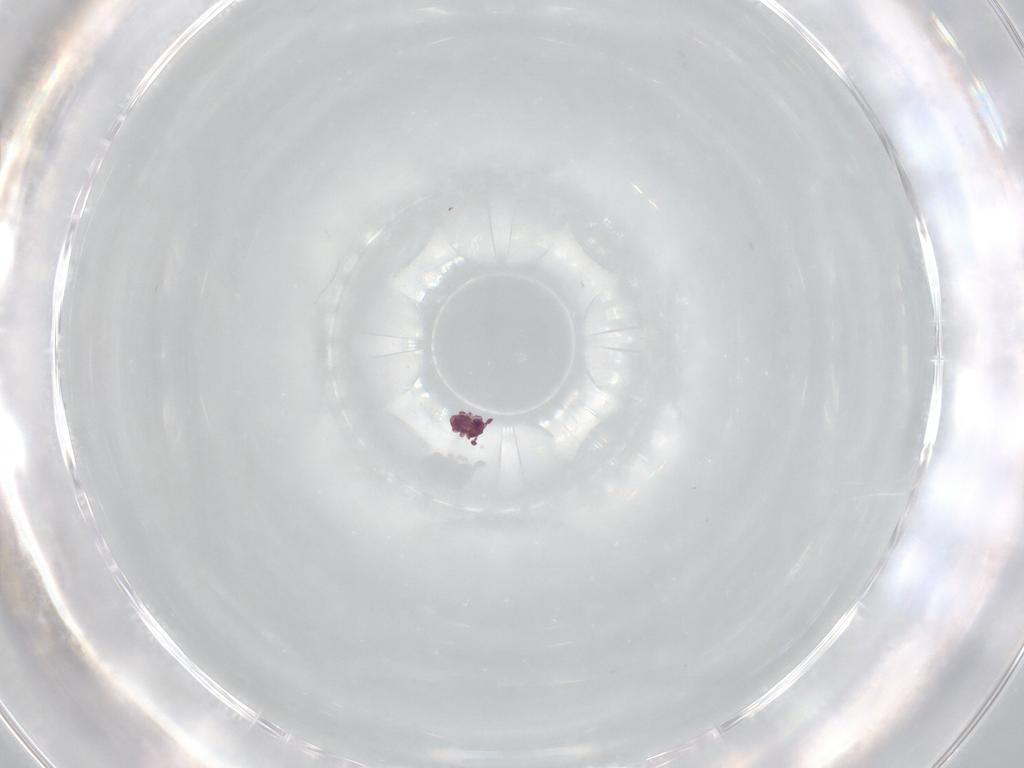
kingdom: Animalia
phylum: Arthropoda
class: Collembola
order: Symphypleona
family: Sminthurididae
